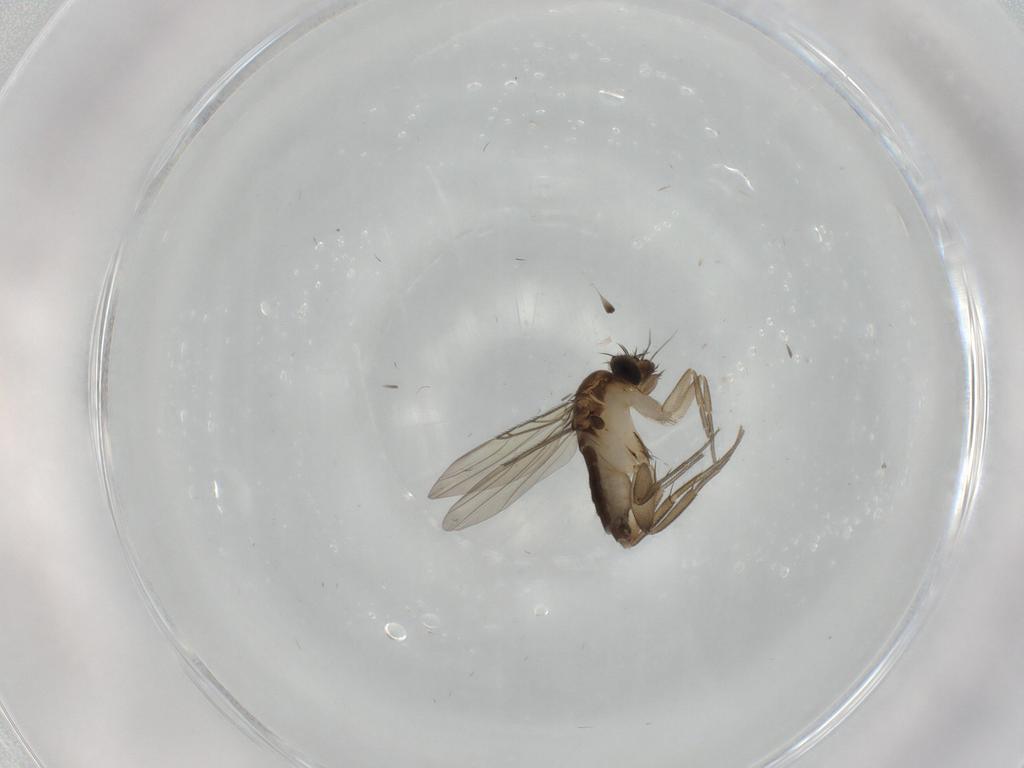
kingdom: Animalia
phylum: Arthropoda
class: Insecta
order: Diptera
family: Phoridae
